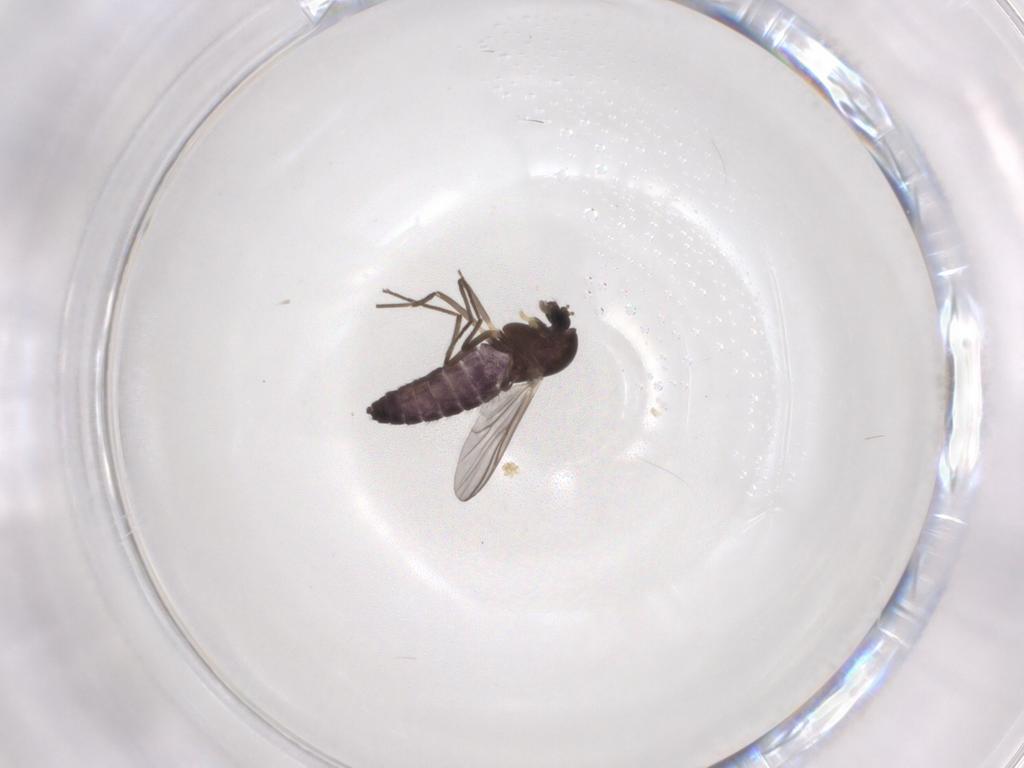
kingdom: Animalia
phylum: Arthropoda
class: Insecta
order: Diptera
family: Chironomidae
